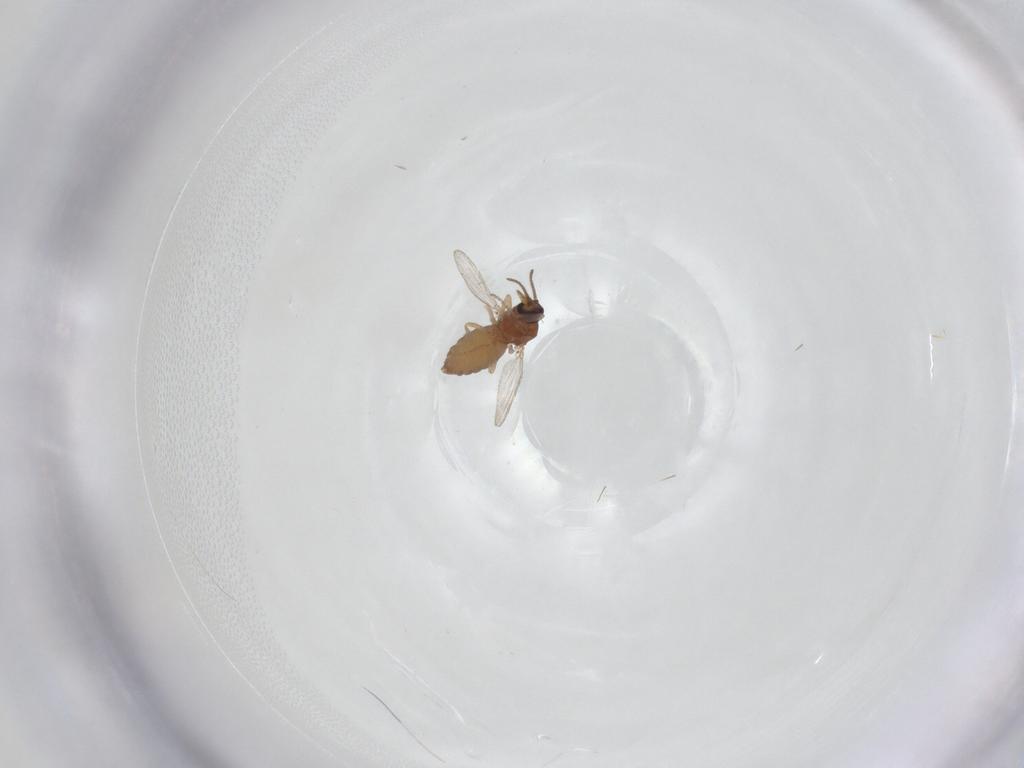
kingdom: Animalia
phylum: Arthropoda
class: Insecta
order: Diptera
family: Ceratopogonidae
